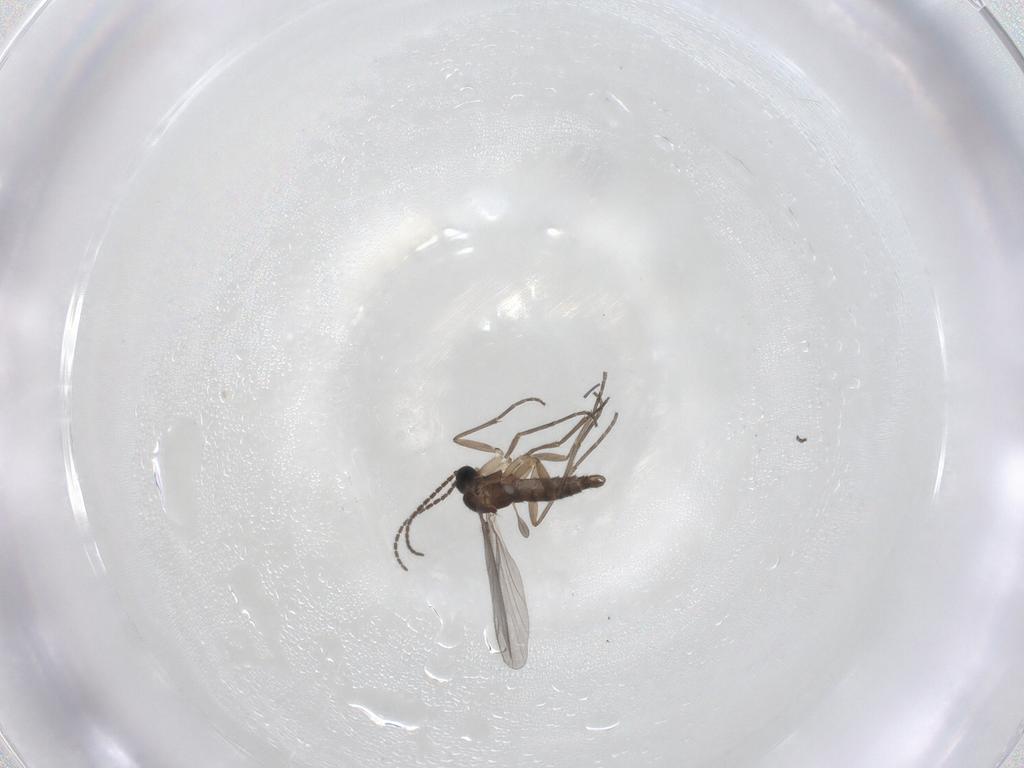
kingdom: Animalia
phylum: Arthropoda
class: Insecta
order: Diptera
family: Sciaridae
